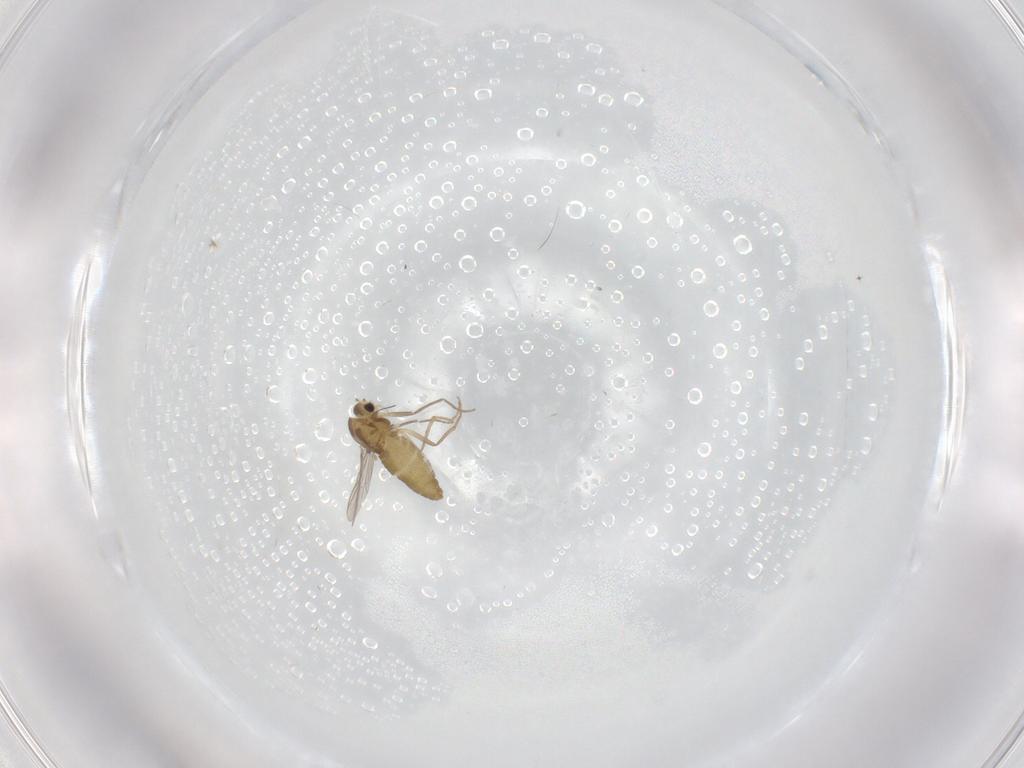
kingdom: Animalia
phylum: Arthropoda
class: Insecta
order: Diptera
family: Chironomidae
